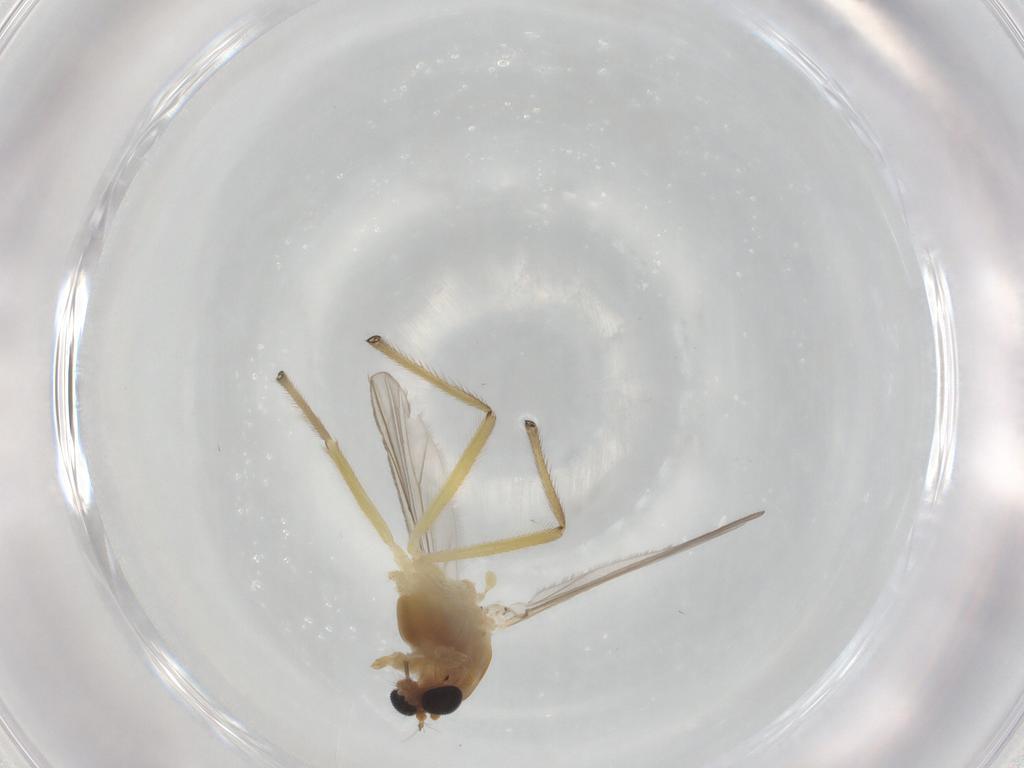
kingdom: Animalia
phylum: Arthropoda
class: Insecta
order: Diptera
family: Chironomidae
